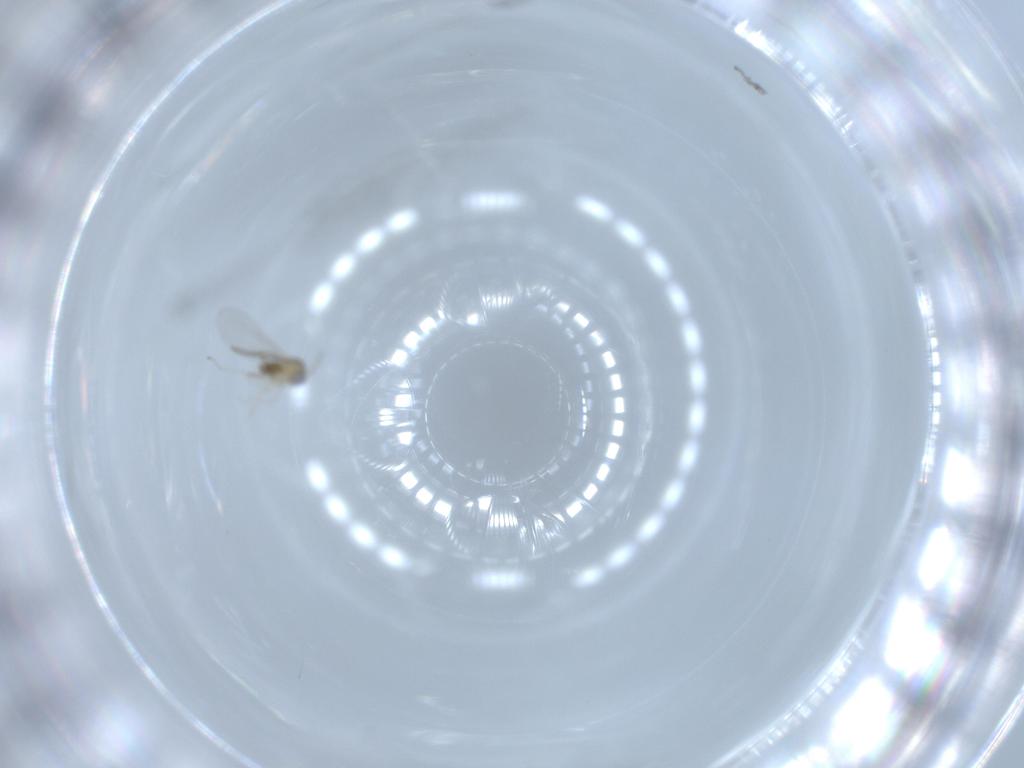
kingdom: Animalia
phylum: Arthropoda
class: Insecta
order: Diptera
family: Cecidomyiidae
